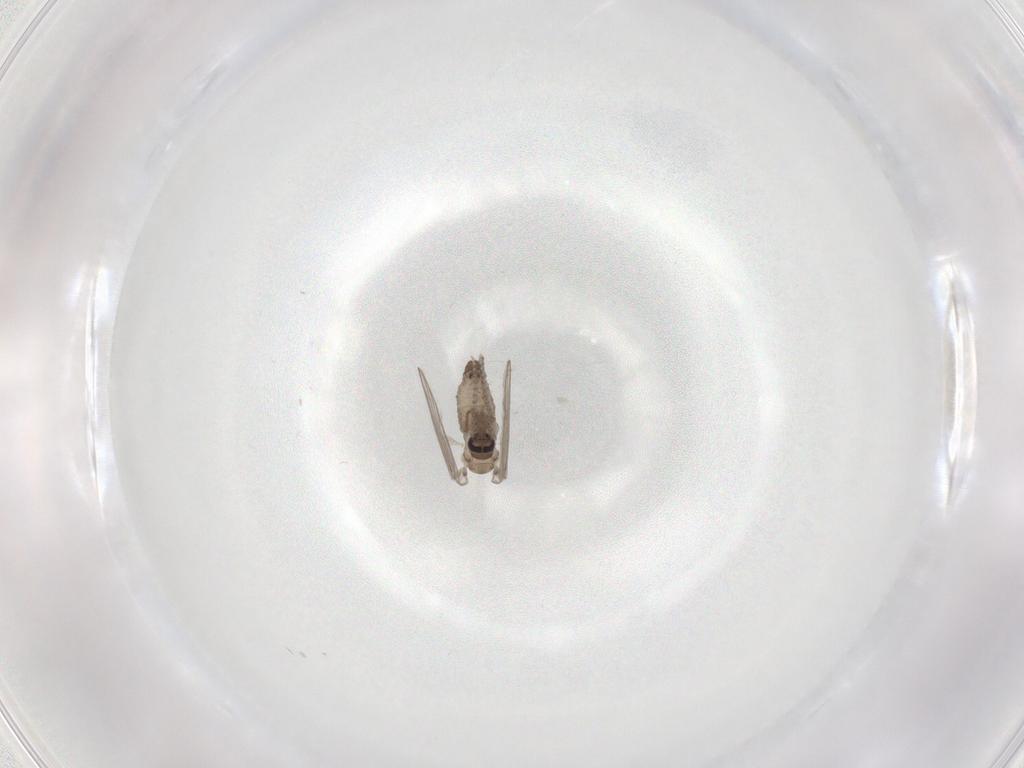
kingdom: Animalia
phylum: Arthropoda
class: Insecta
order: Diptera
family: Psychodidae
